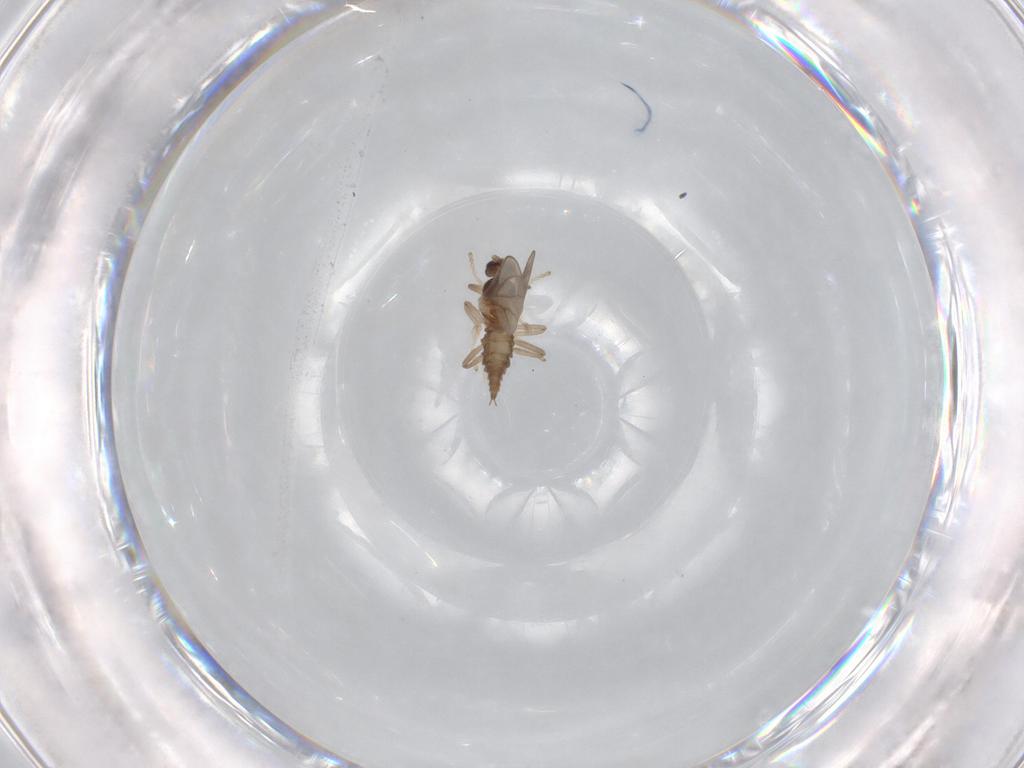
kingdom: Animalia
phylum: Arthropoda
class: Insecta
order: Diptera
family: Cecidomyiidae
